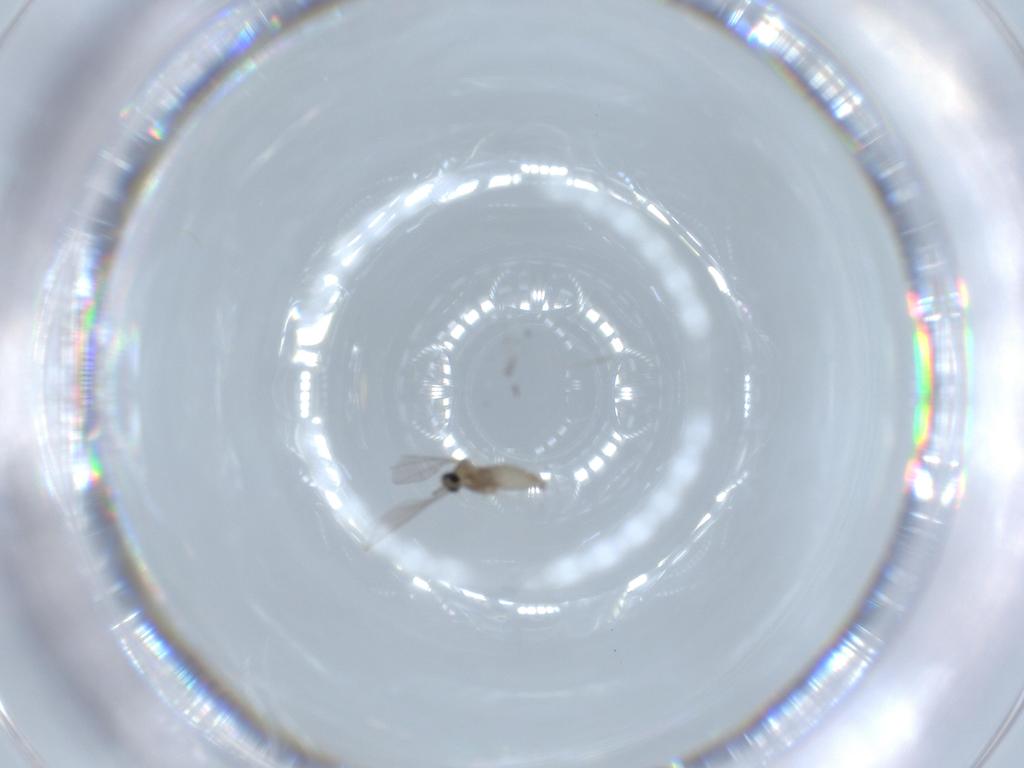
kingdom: Animalia
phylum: Arthropoda
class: Insecta
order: Diptera
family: Cecidomyiidae
